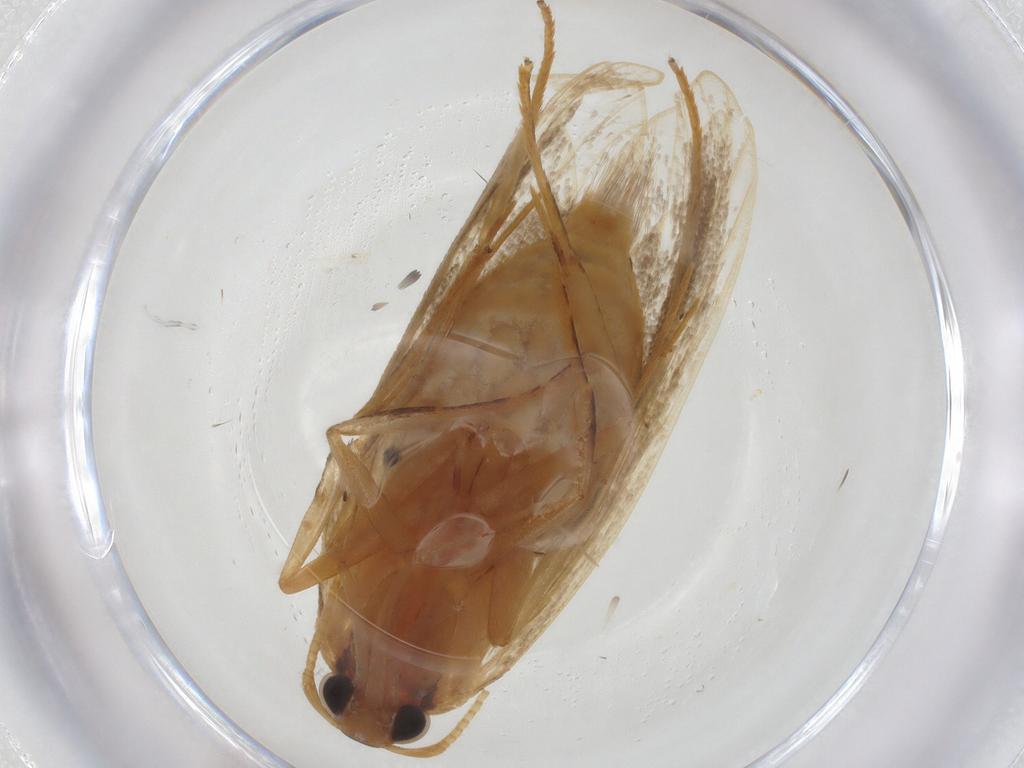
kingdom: Animalia
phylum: Arthropoda
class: Insecta
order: Lepidoptera
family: Lecithoceridae
